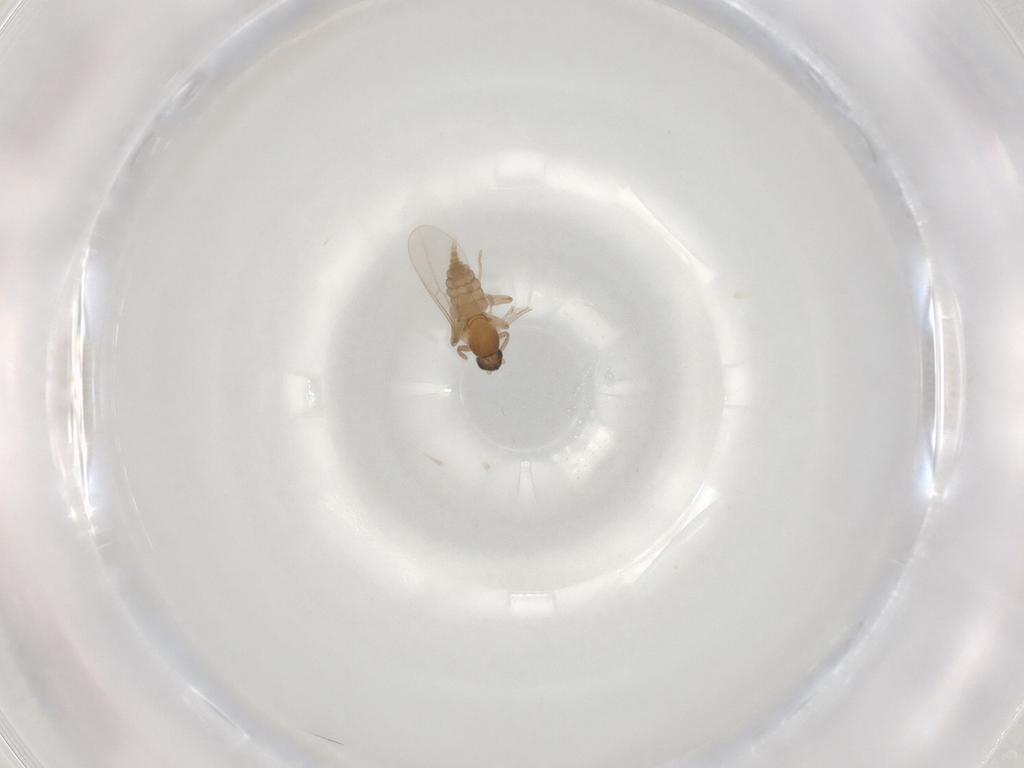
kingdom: Animalia
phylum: Arthropoda
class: Insecta
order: Diptera
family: Cecidomyiidae
